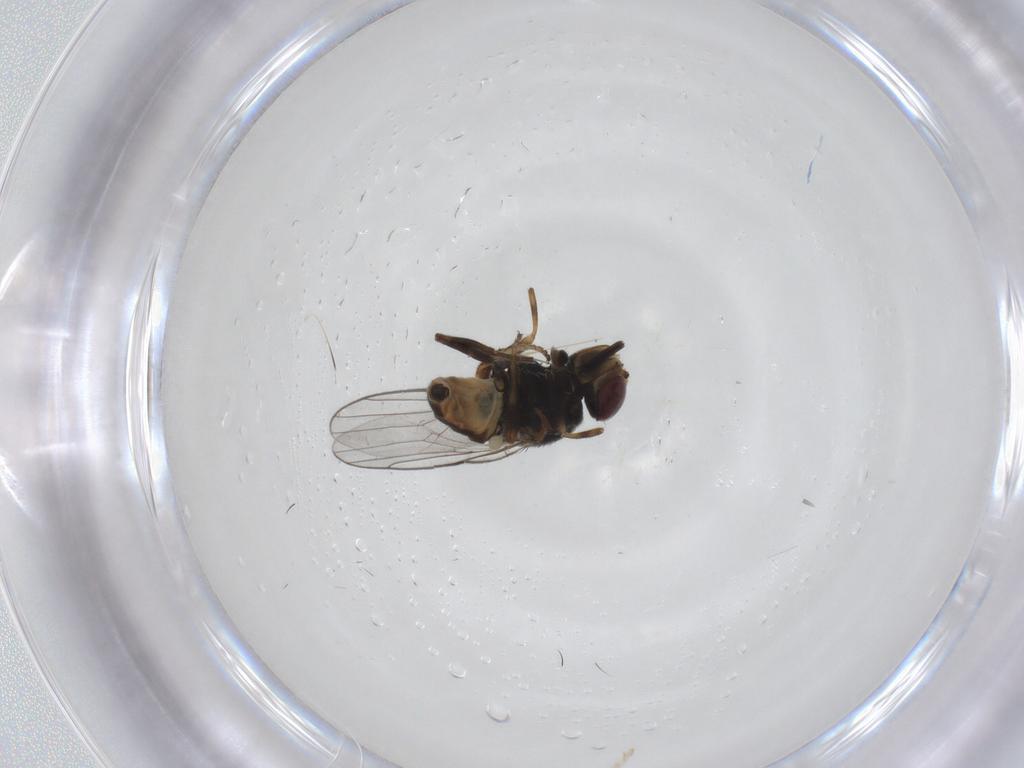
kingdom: Animalia
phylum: Arthropoda
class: Insecta
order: Diptera
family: Chloropidae
